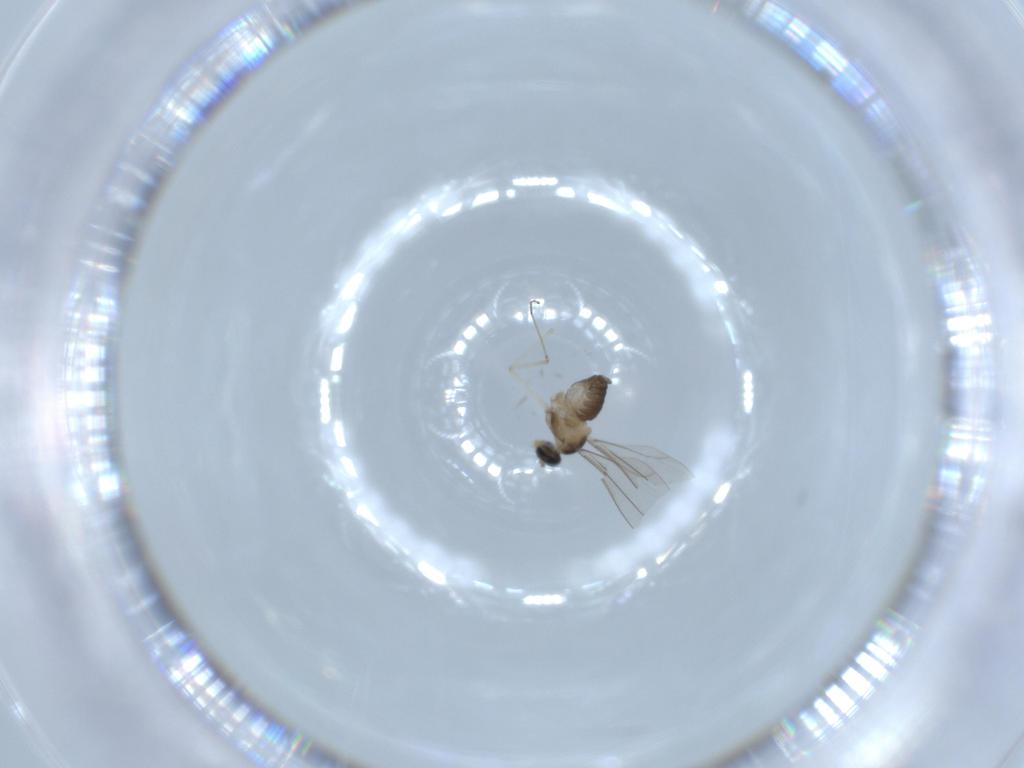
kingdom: Animalia
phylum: Arthropoda
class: Insecta
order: Diptera
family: Cecidomyiidae
